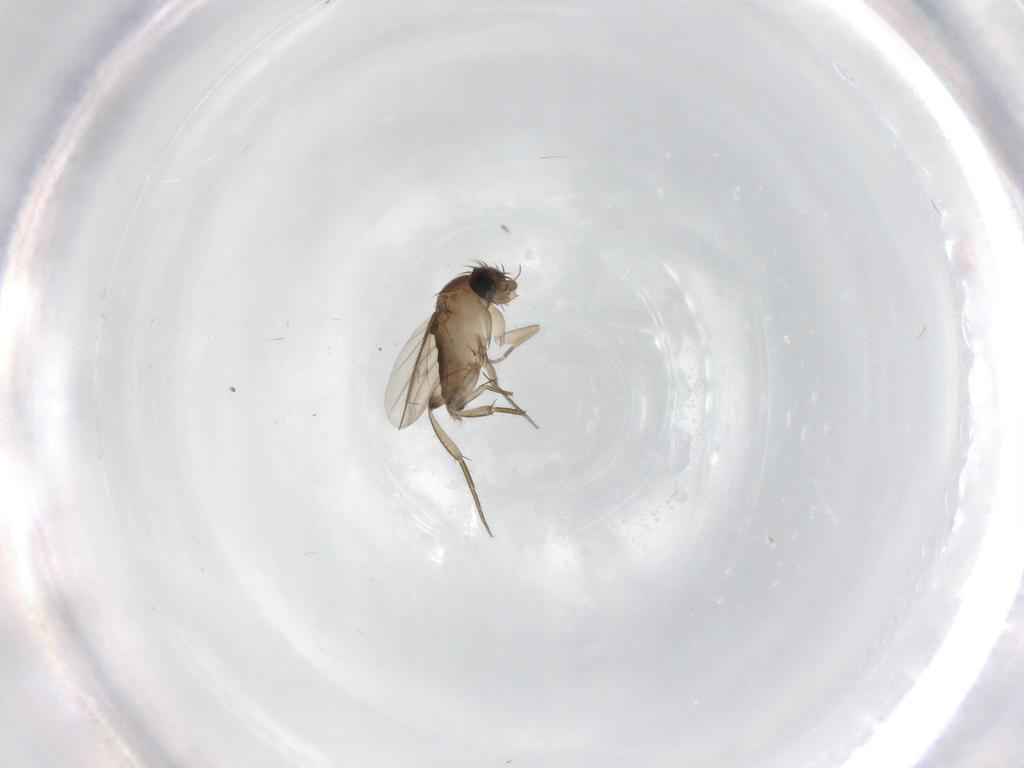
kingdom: Animalia
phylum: Arthropoda
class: Insecta
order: Diptera
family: Phoridae
